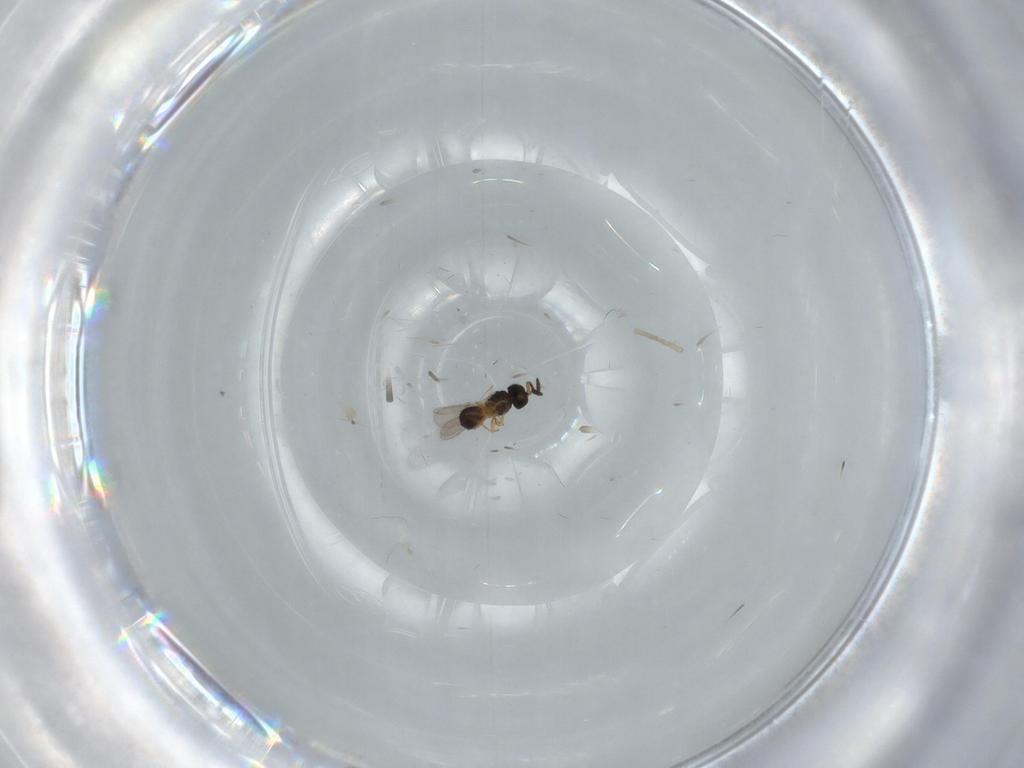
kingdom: Animalia
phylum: Arthropoda
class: Insecta
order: Hymenoptera
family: Scelionidae
